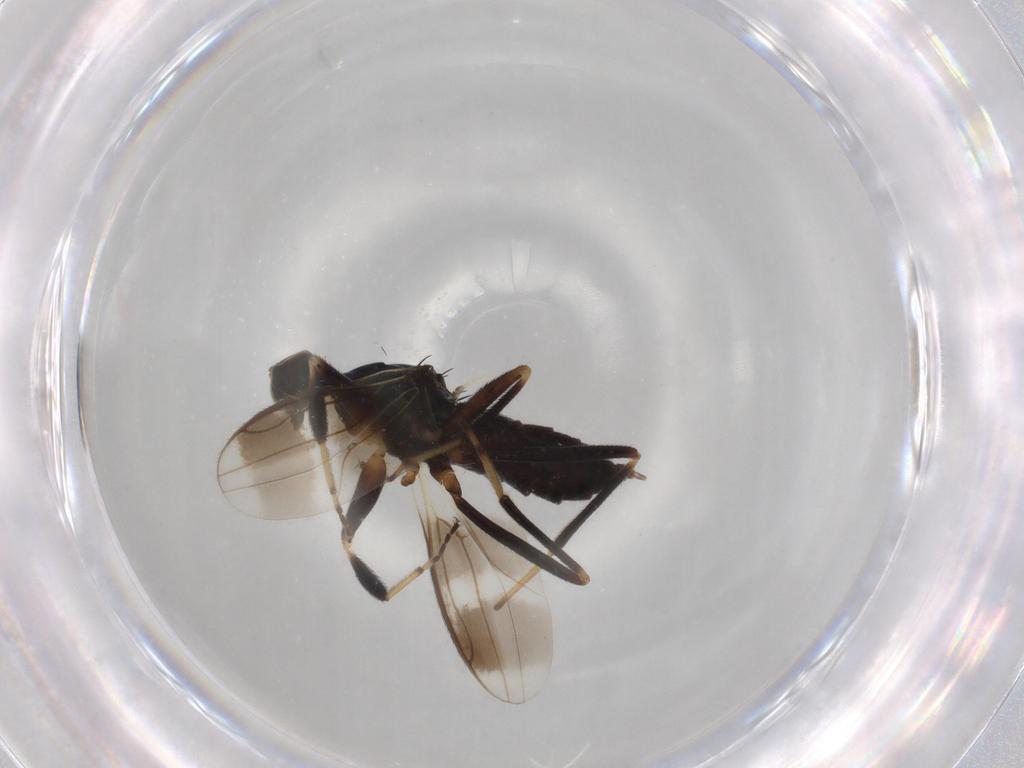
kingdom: Animalia
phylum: Arthropoda
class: Insecta
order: Diptera
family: Hybotidae
